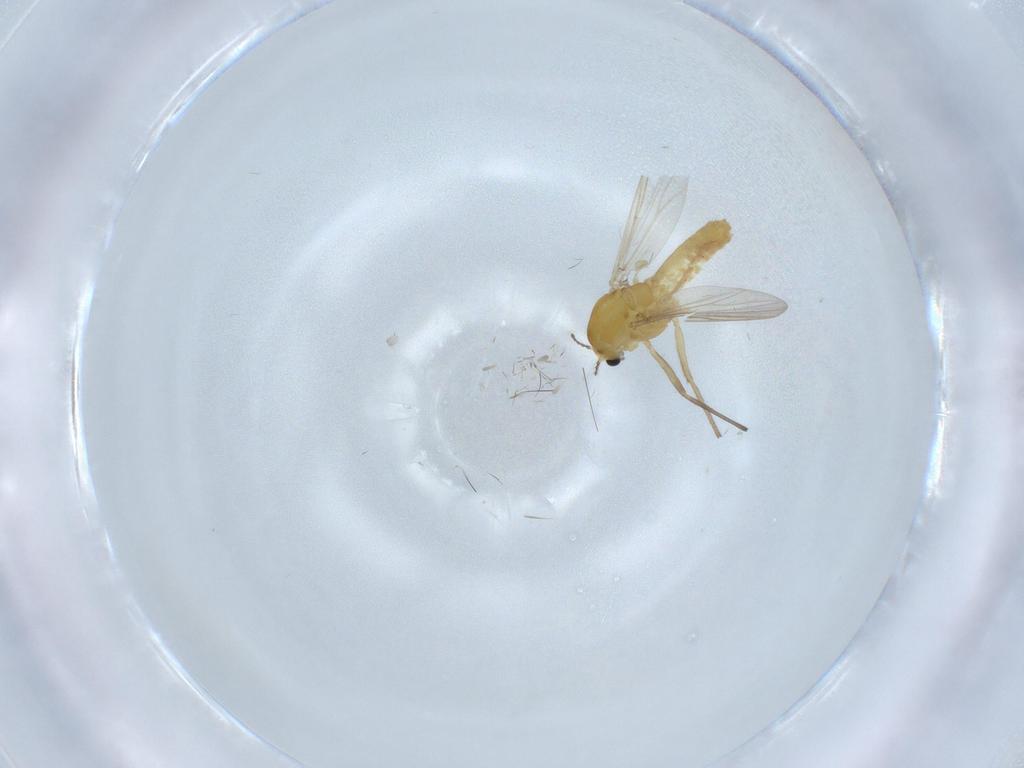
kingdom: Animalia
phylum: Arthropoda
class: Insecta
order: Diptera
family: Chironomidae
